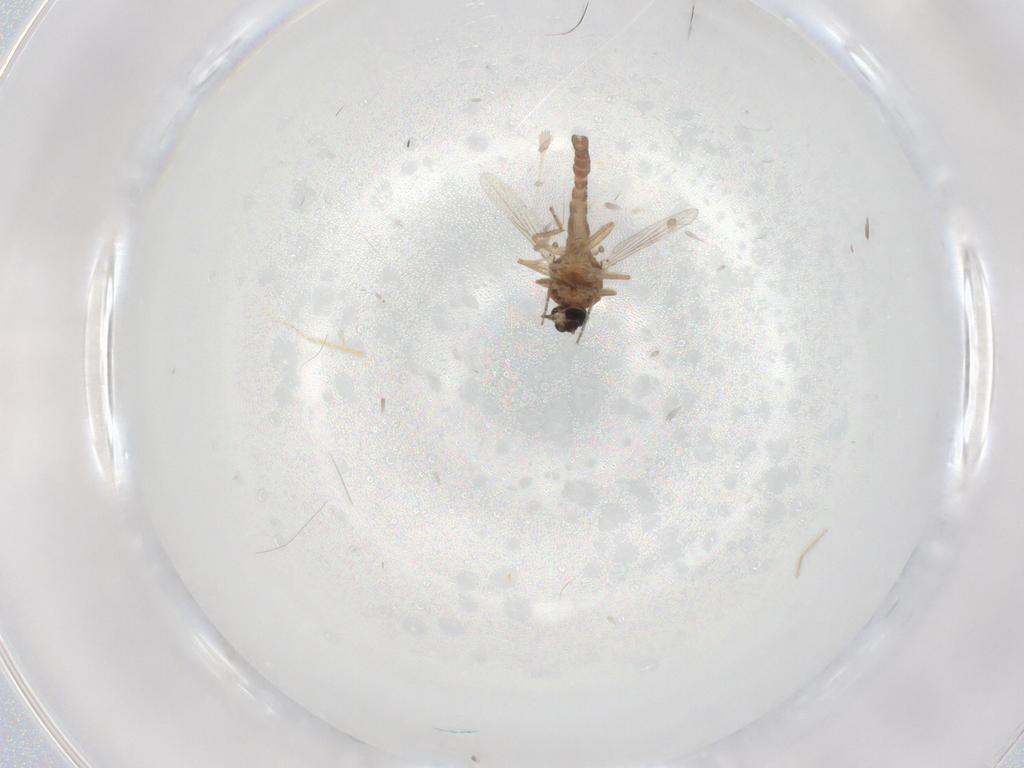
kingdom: Animalia
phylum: Arthropoda
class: Insecta
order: Diptera
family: Ceratopogonidae
